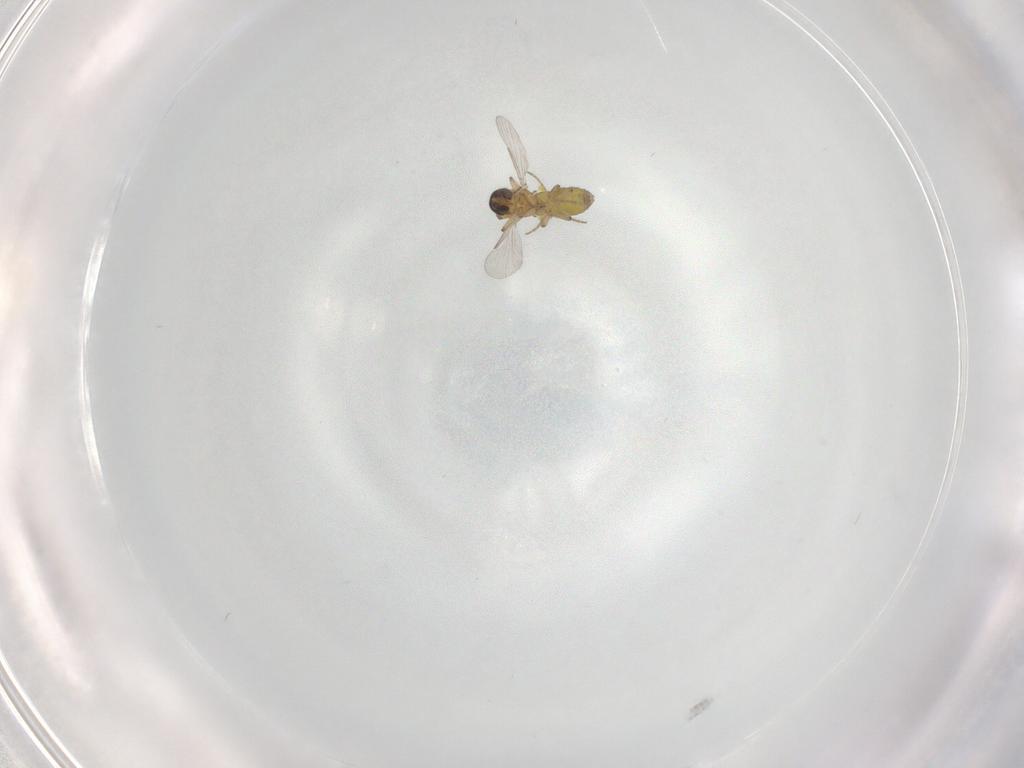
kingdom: Animalia
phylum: Arthropoda
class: Insecta
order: Diptera
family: Ceratopogonidae
